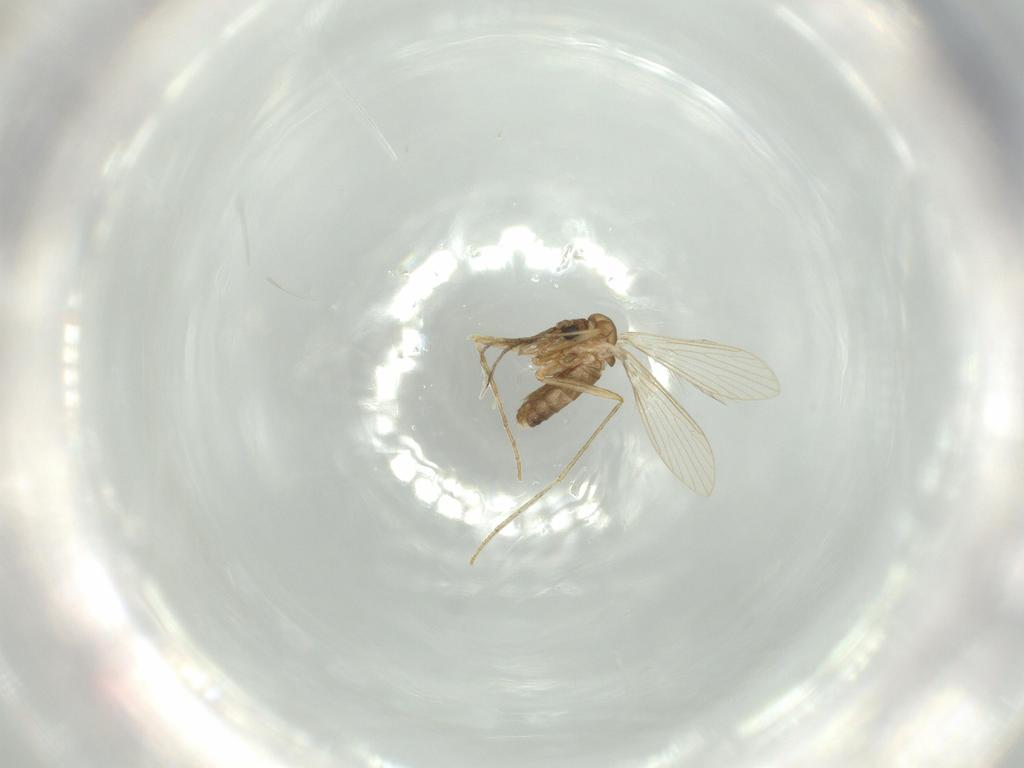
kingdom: Animalia
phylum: Arthropoda
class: Insecta
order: Diptera
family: Psychodidae
